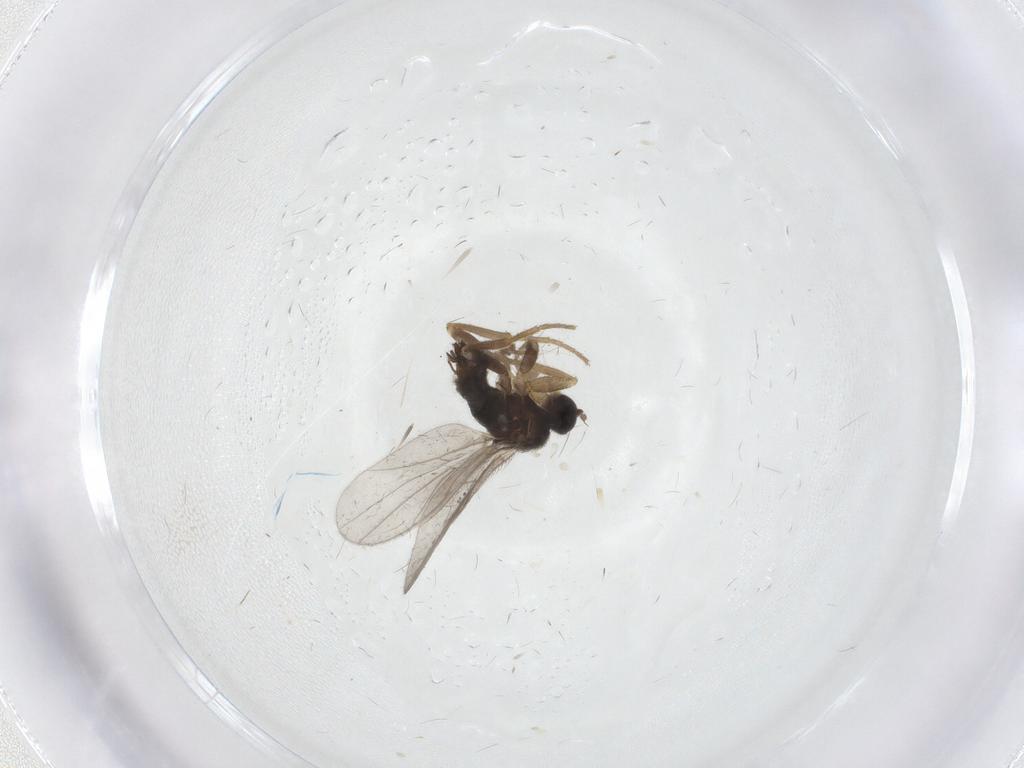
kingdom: Animalia
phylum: Arthropoda
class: Insecta
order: Diptera
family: Hybotidae
